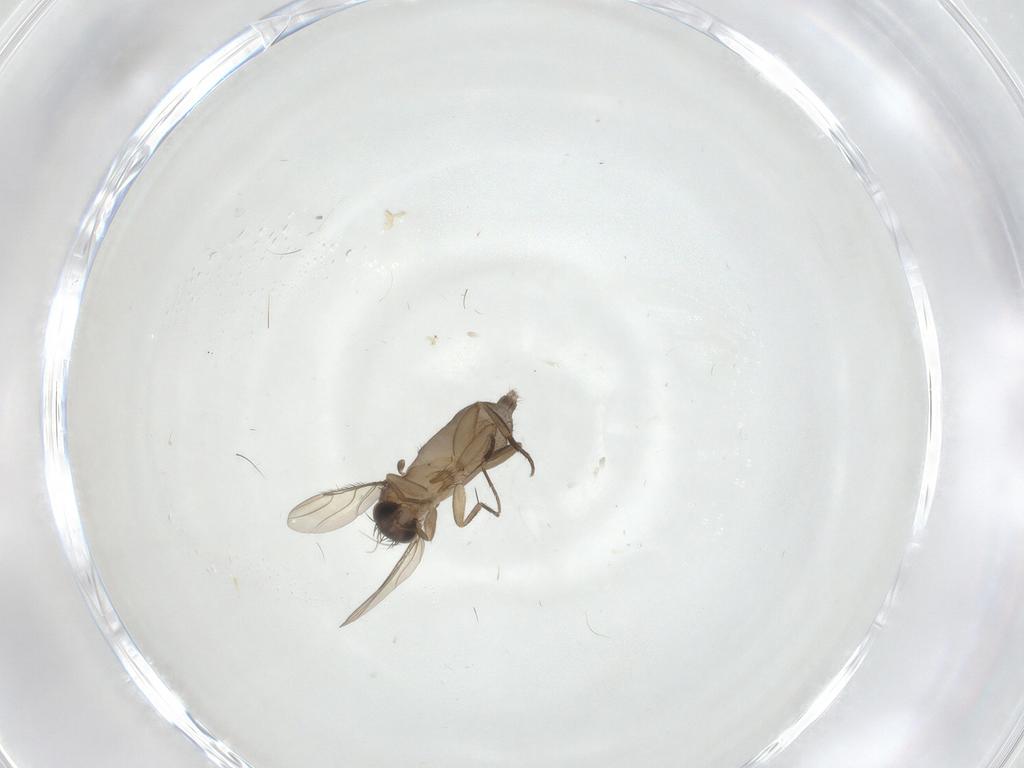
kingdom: Animalia
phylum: Arthropoda
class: Insecta
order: Diptera
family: Phoridae
